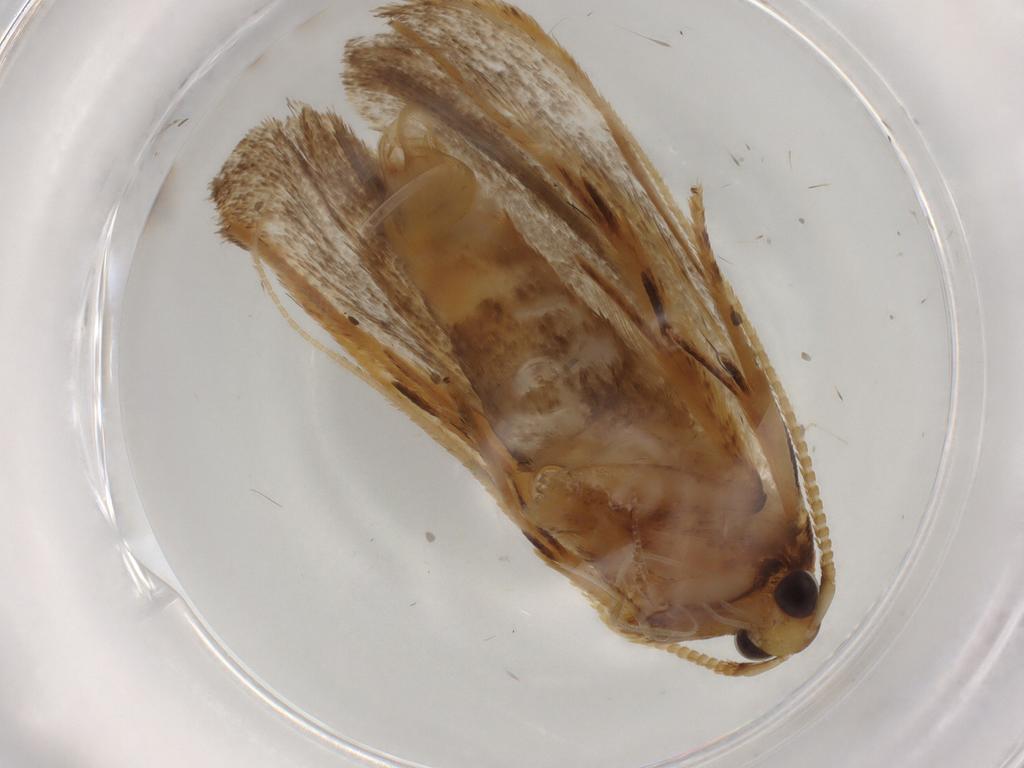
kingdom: Animalia
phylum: Arthropoda
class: Insecta
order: Lepidoptera
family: Lecithoceridae
